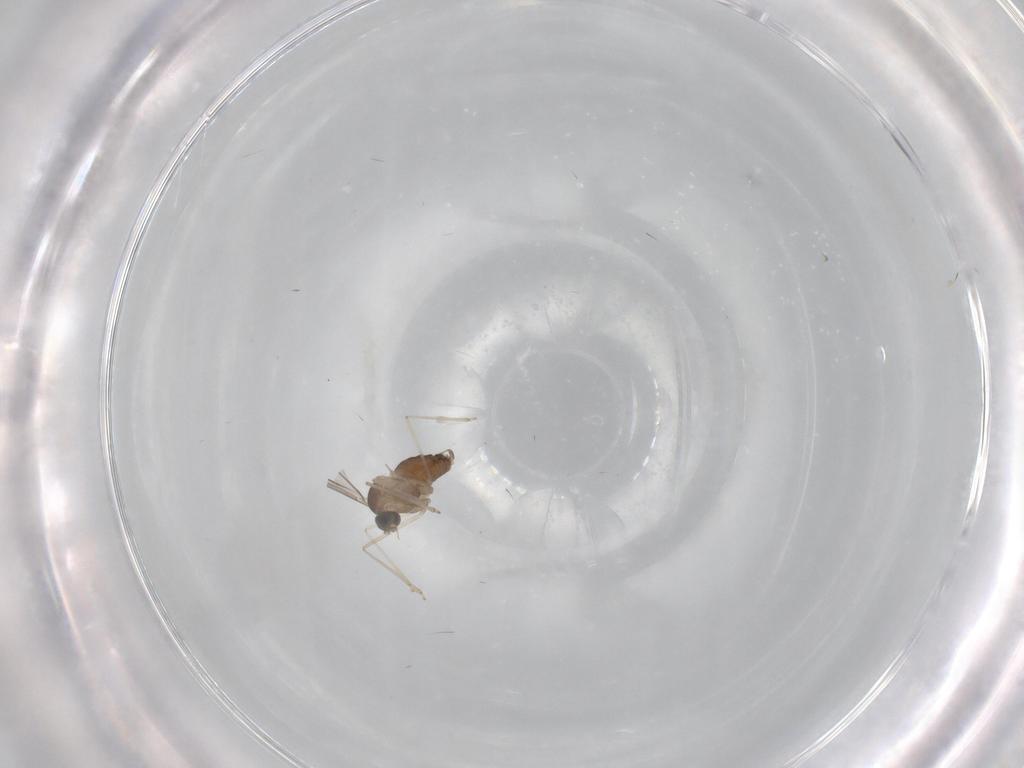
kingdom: Animalia
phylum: Arthropoda
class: Insecta
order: Diptera
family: Cecidomyiidae
